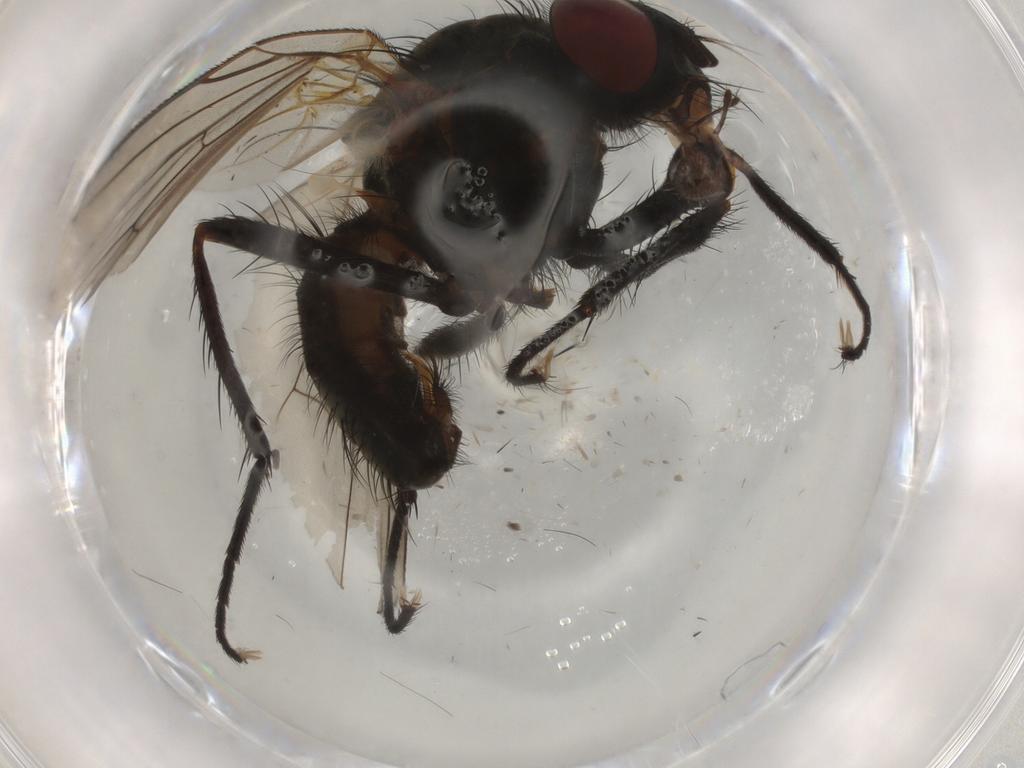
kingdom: Animalia
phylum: Arthropoda
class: Insecta
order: Diptera
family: Anthomyiidae
